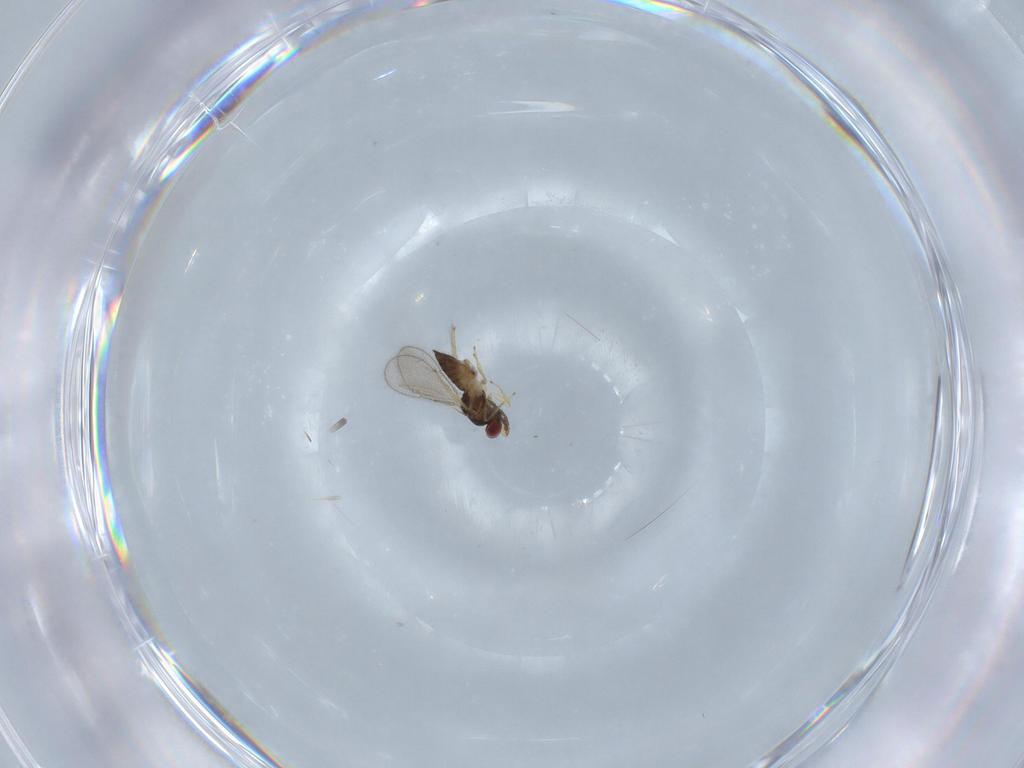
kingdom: Animalia
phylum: Arthropoda
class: Insecta
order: Hymenoptera
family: Eulophidae
